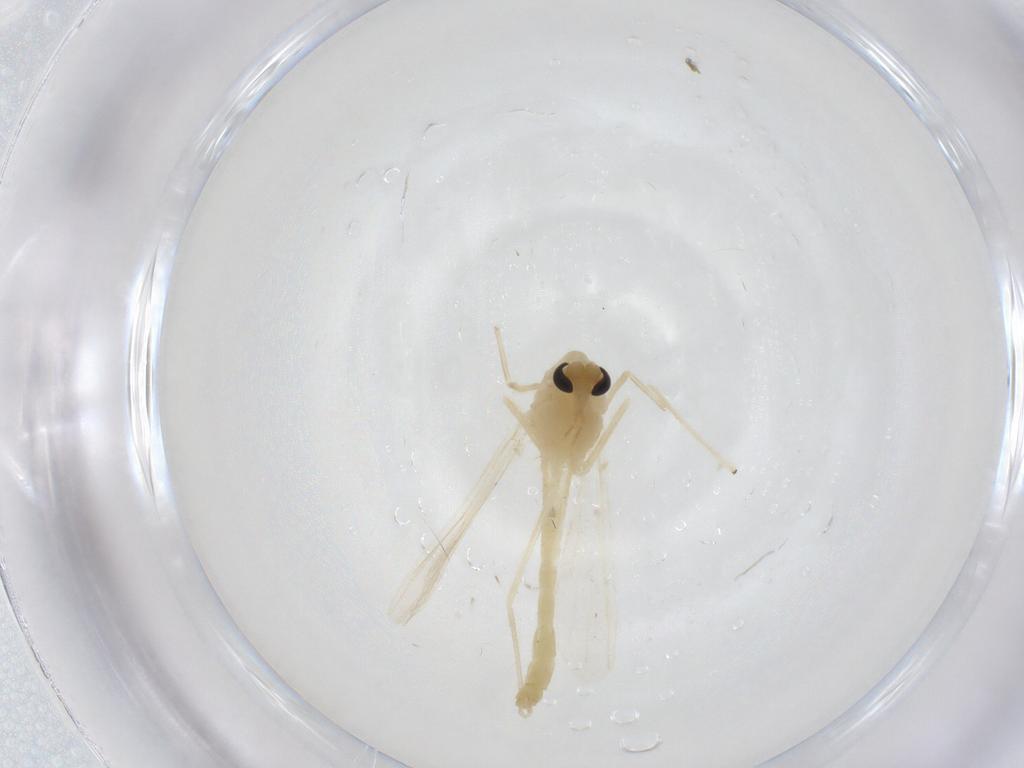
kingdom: Animalia
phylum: Arthropoda
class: Insecta
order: Diptera
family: Chironomidae
